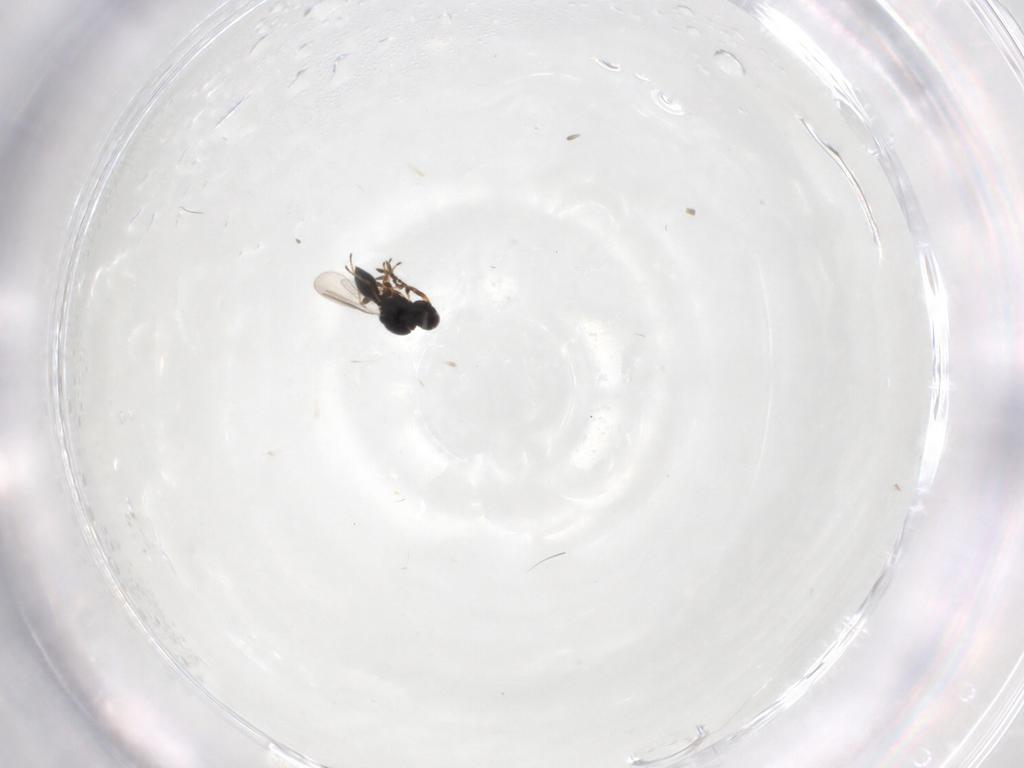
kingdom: Animalia
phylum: Arthropoda
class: Insecta
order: Hymenoptera
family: Platygastridae
